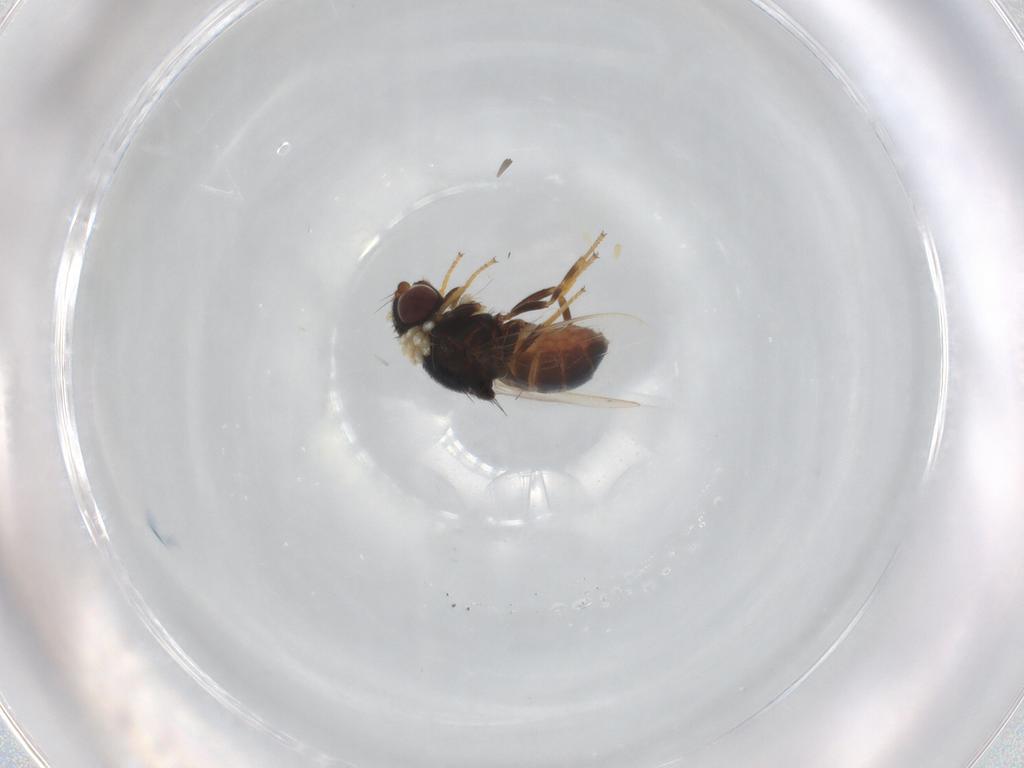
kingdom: Animalia
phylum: Arthropoda
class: Insecta
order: Diptera
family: Chloropidae
